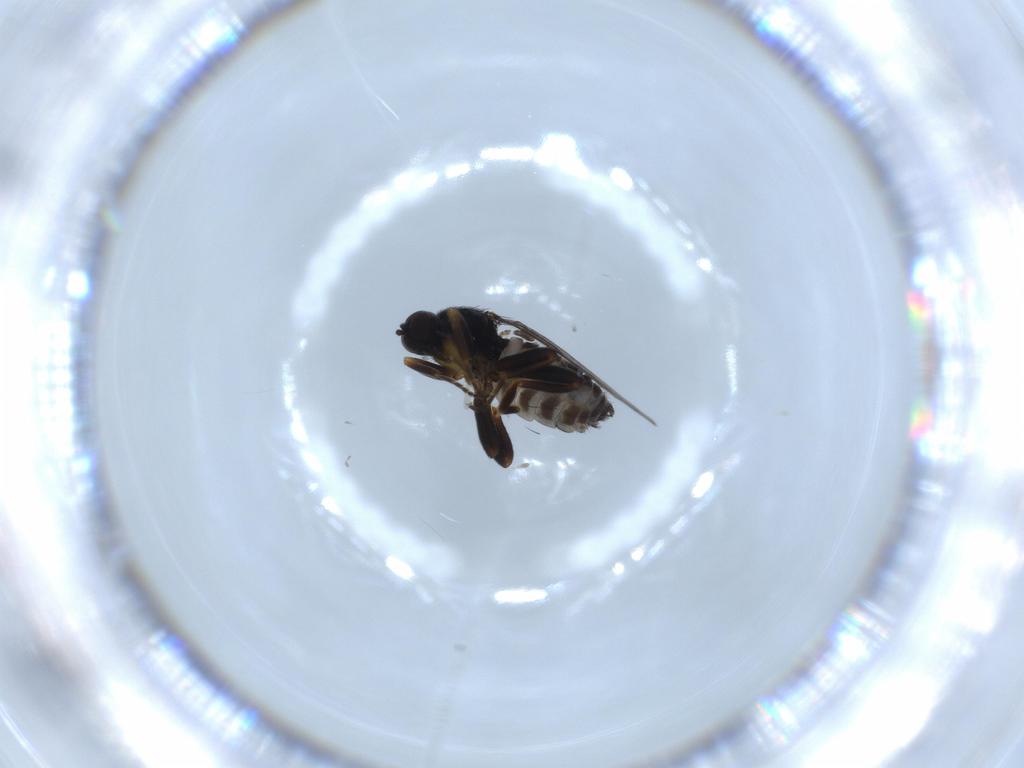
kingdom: Animalia
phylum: Arthropoda
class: Insecta
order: Diptera
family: Hybotidae
